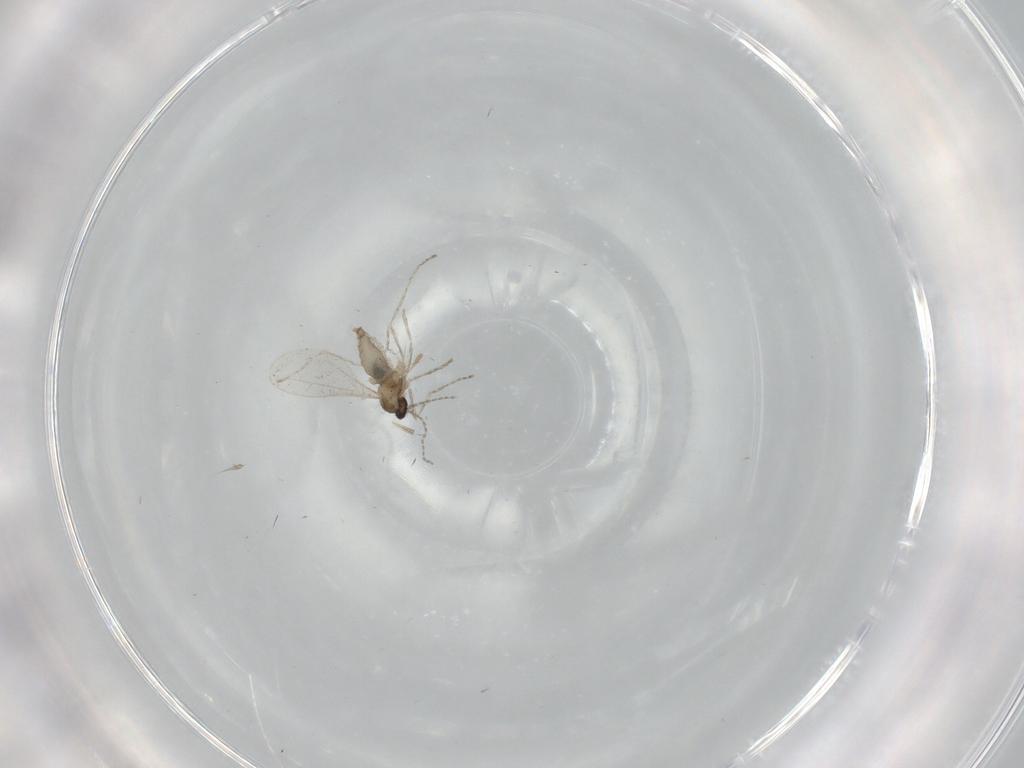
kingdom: Animalia
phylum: Arthropoda
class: Insecta
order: Diptera
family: Cecidomyiidae
